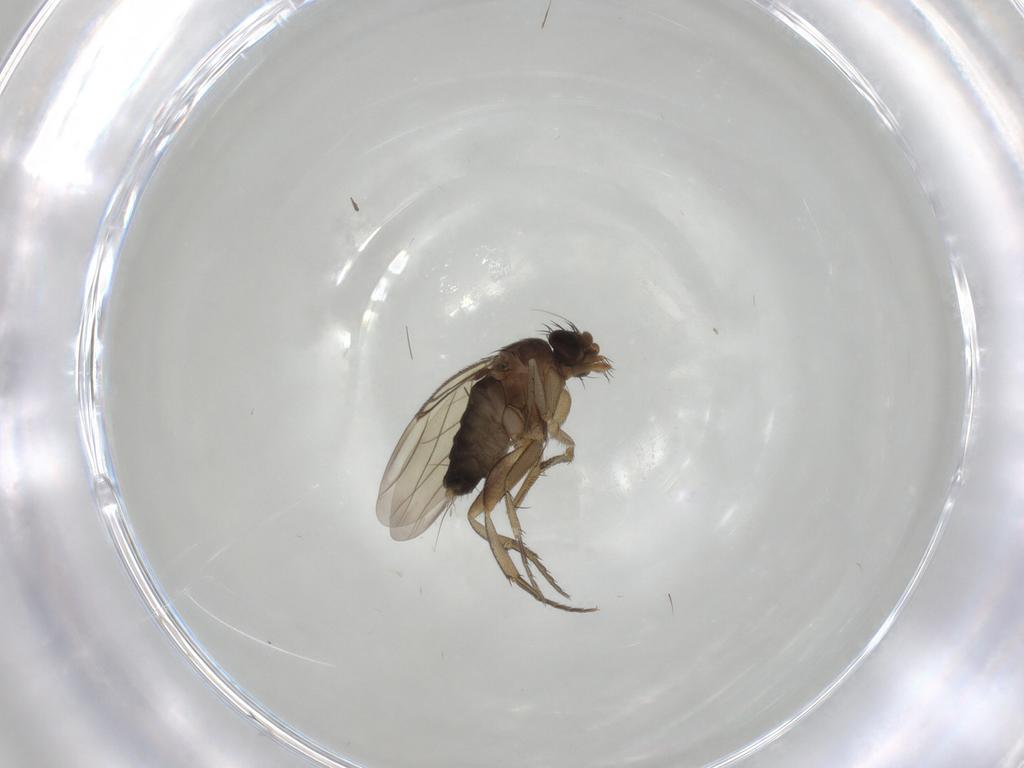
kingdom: Animalia
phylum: Arthropoda
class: Insecta
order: Diptera
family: Phoridae
